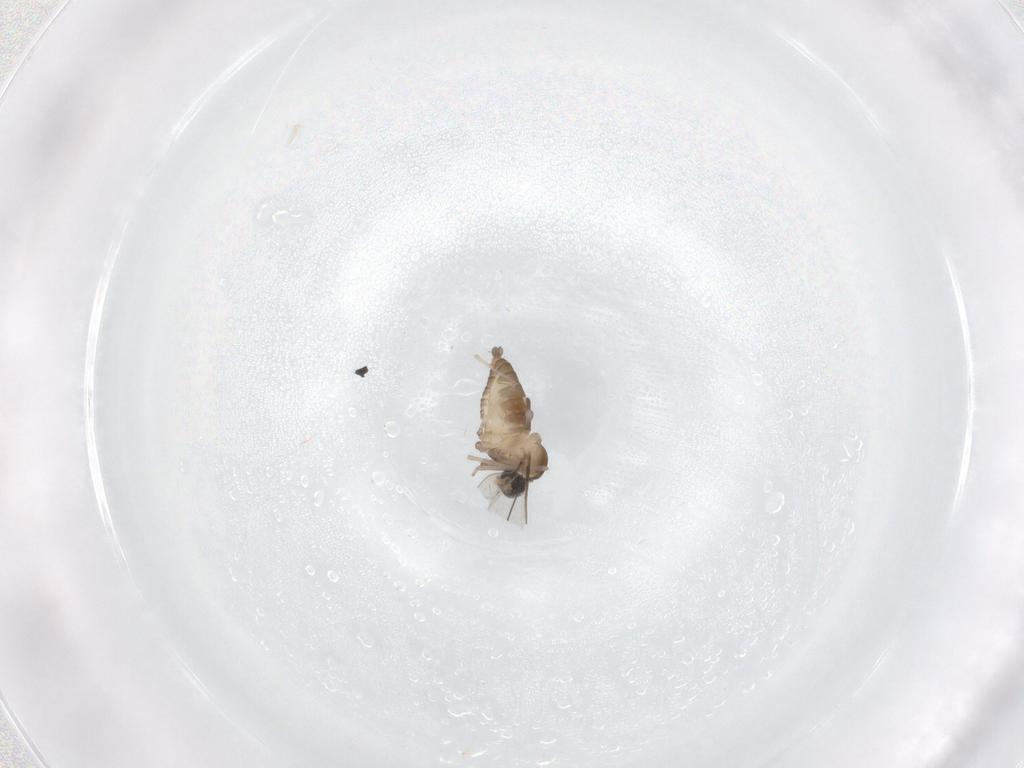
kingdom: Animalia
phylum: Arthropoda
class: Insecta
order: Diptera
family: Cecidomyiidae
